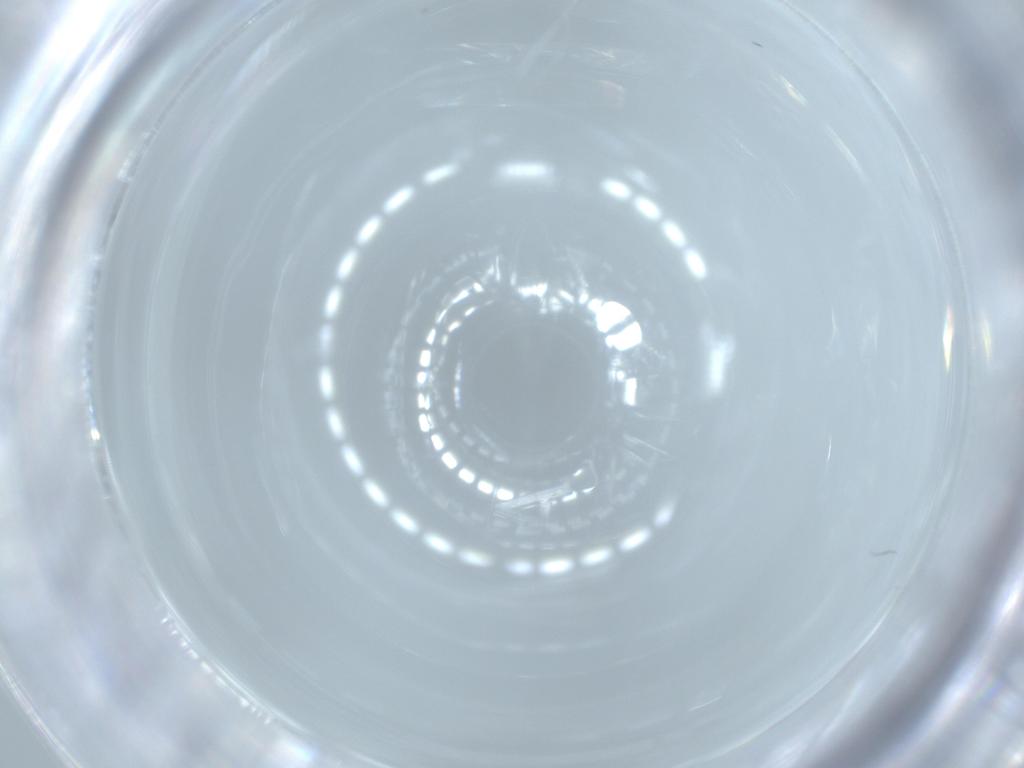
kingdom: Animalia
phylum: Arthropoda
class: Insecta
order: Diptera
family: Psychodidae
